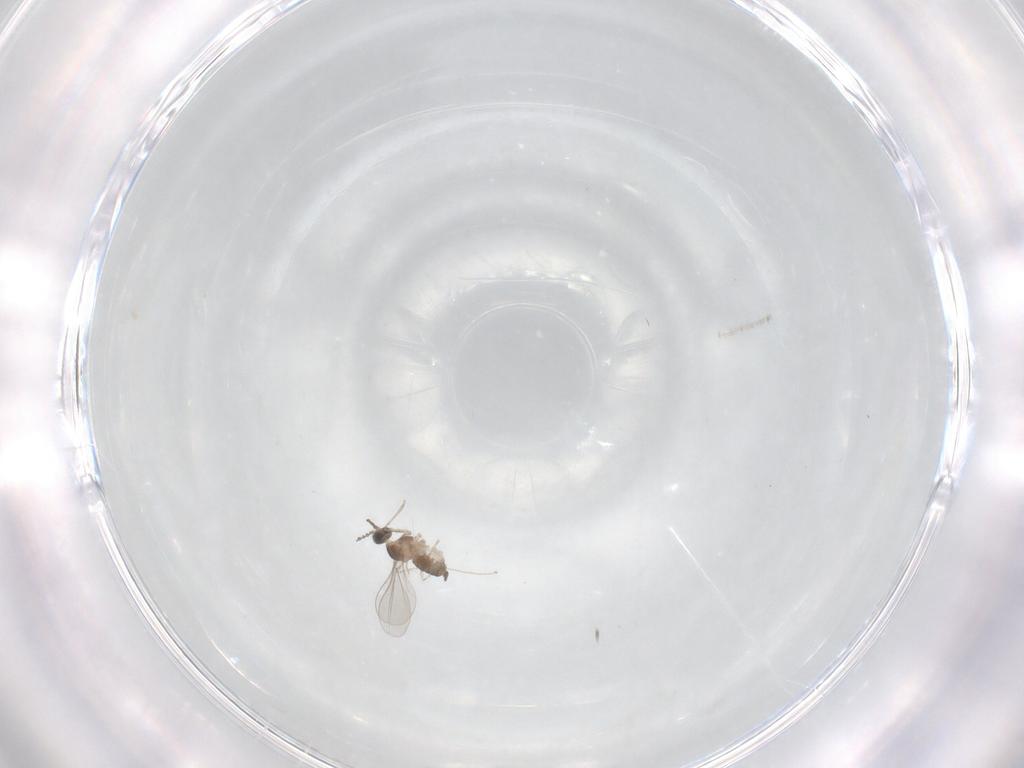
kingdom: Animalia
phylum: Arthropoda
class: Insecta
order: Diptera
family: Cecidomyiidae
